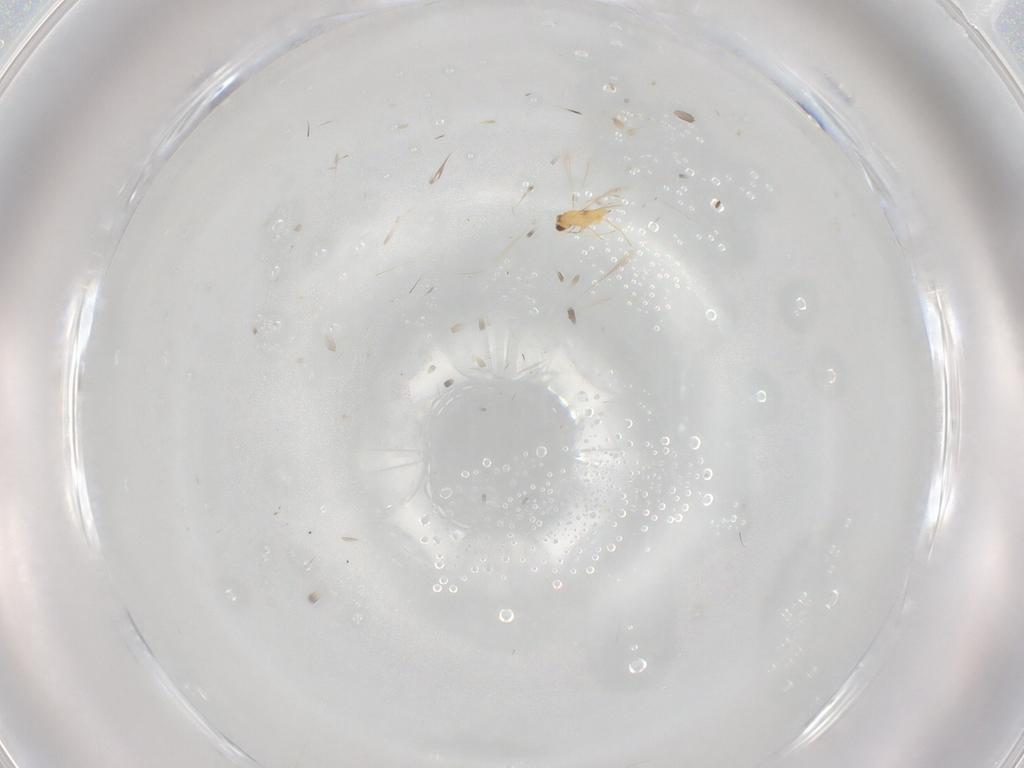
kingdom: Animalia
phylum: Arthropoda
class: Insecta
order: Hymenoptera
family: Mymaridae
